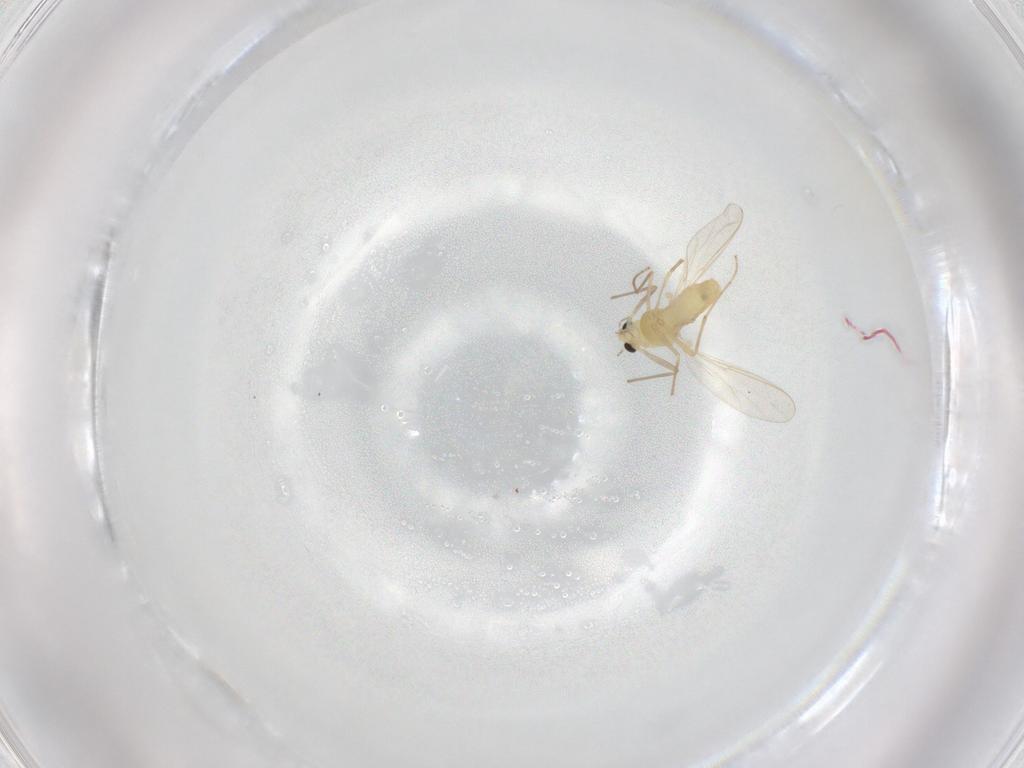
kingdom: Animalia
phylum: Arthropoda
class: Insecta
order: Diptera
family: Chironomidae
